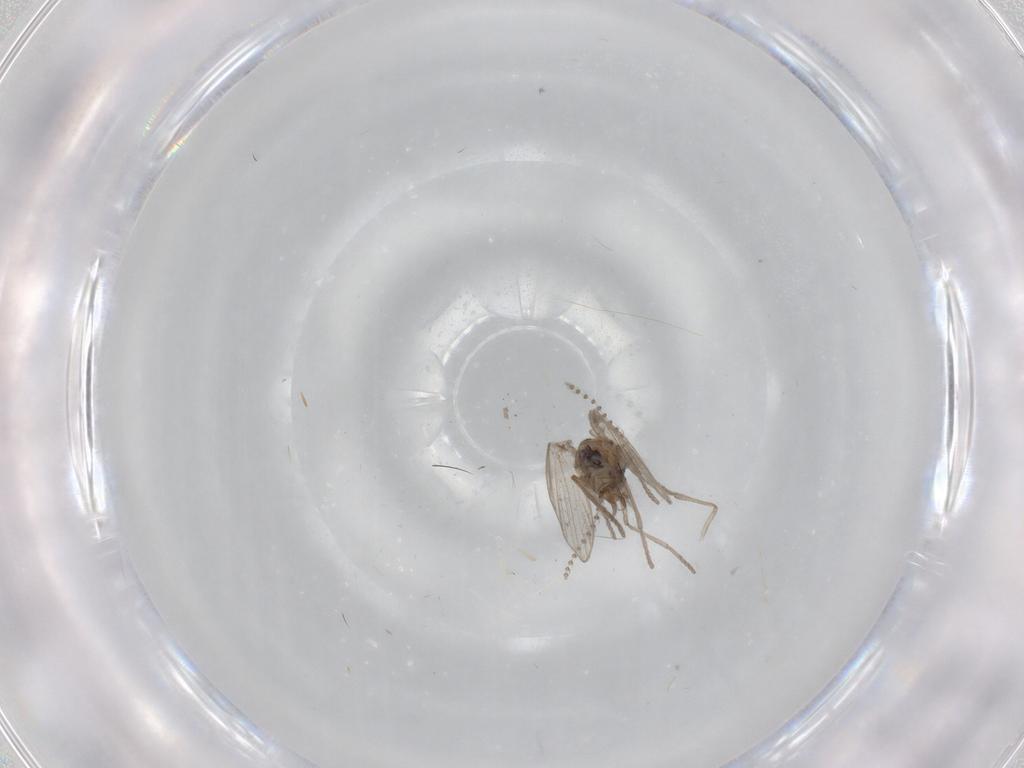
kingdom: Animalia
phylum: Arthropoda
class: Insecta
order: Diptera
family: Psychodidae
